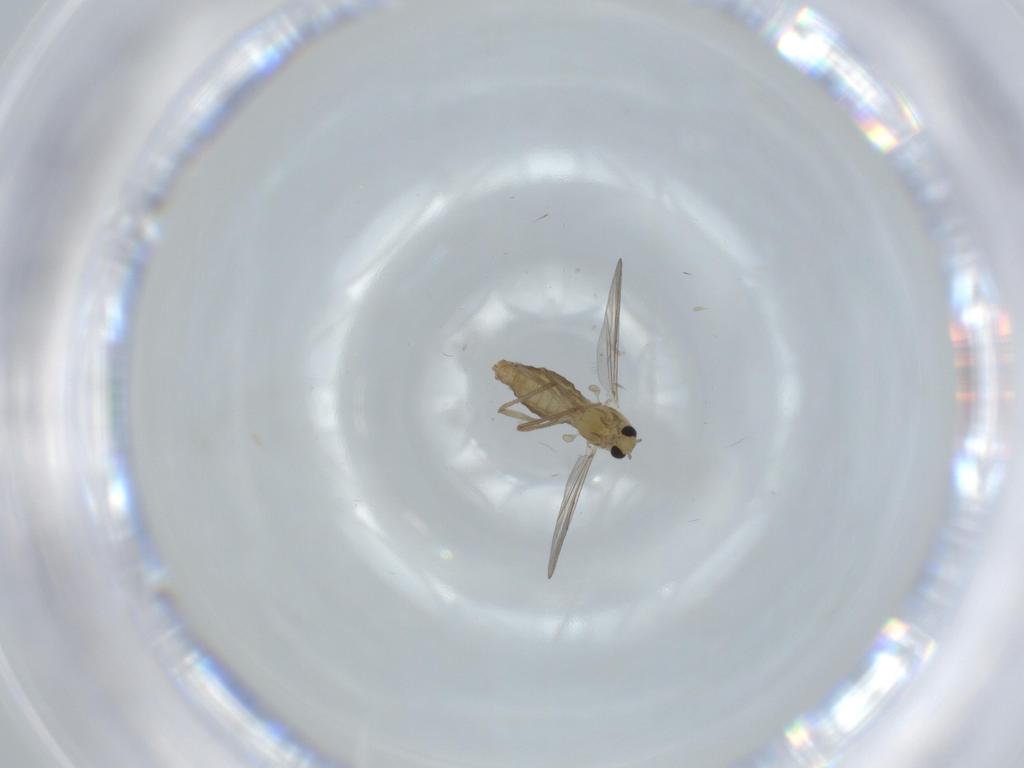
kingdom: Animalia
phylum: Arthropoda
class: Insecta
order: Diptera
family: Chironomidae
